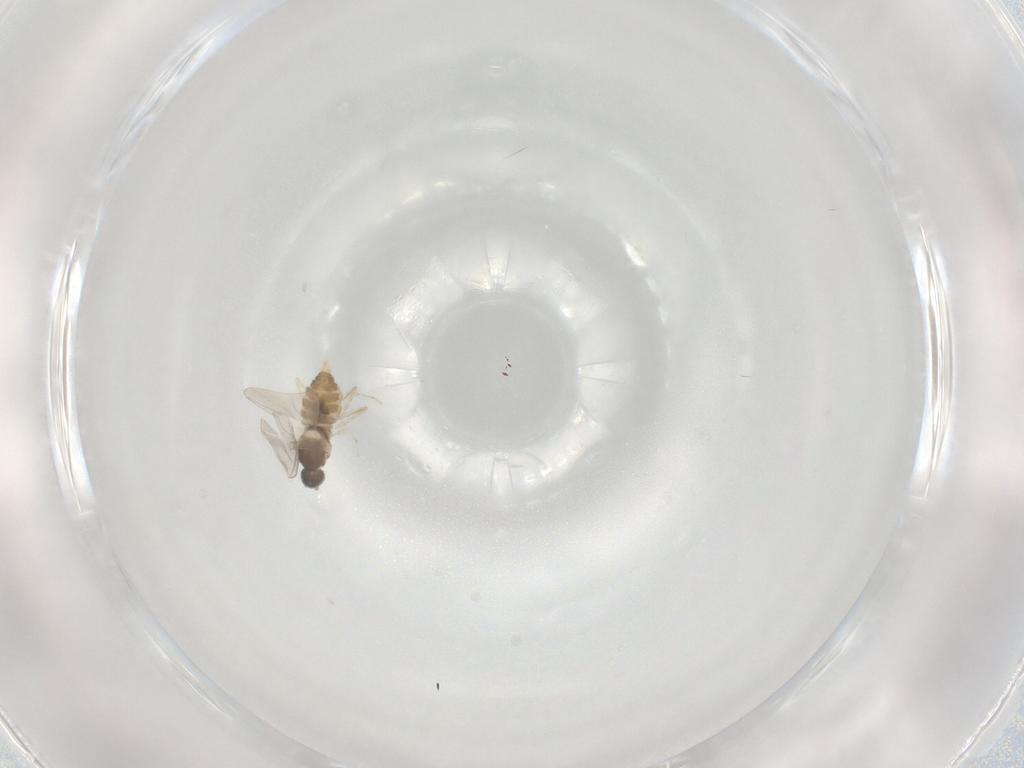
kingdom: Animalia
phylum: Arthropoda
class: Insecta
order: Diptera
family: Cecidomyiidae
